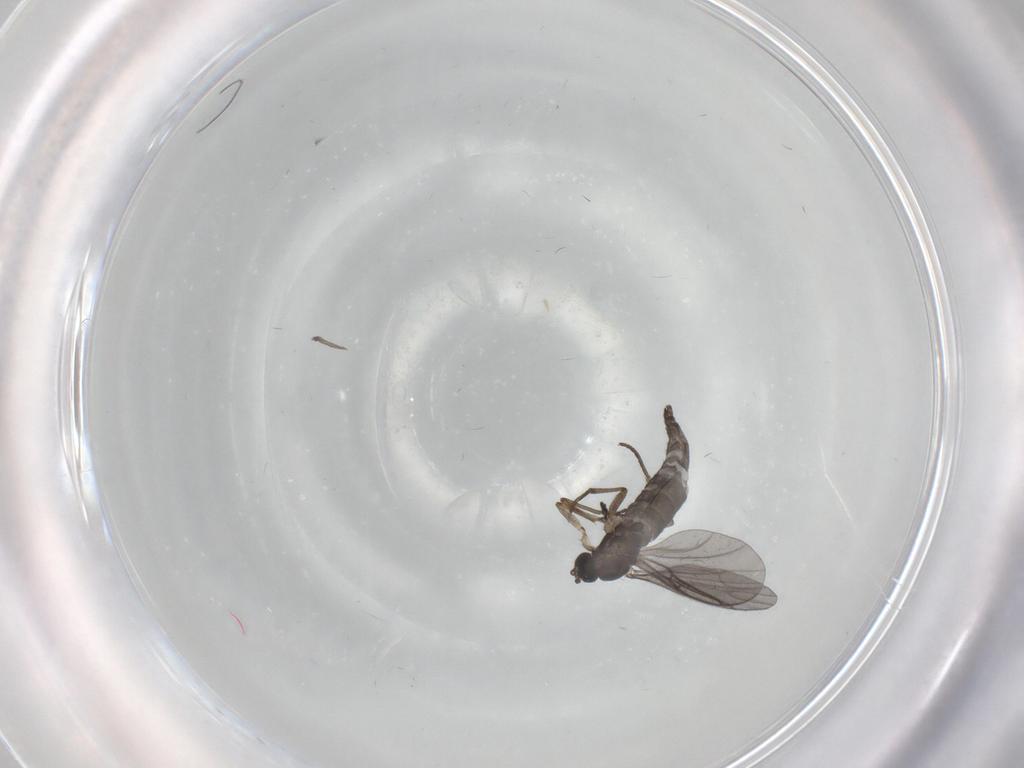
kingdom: Animalia
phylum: Arthropoda
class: Insecta
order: Diptera
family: Sciaridae
